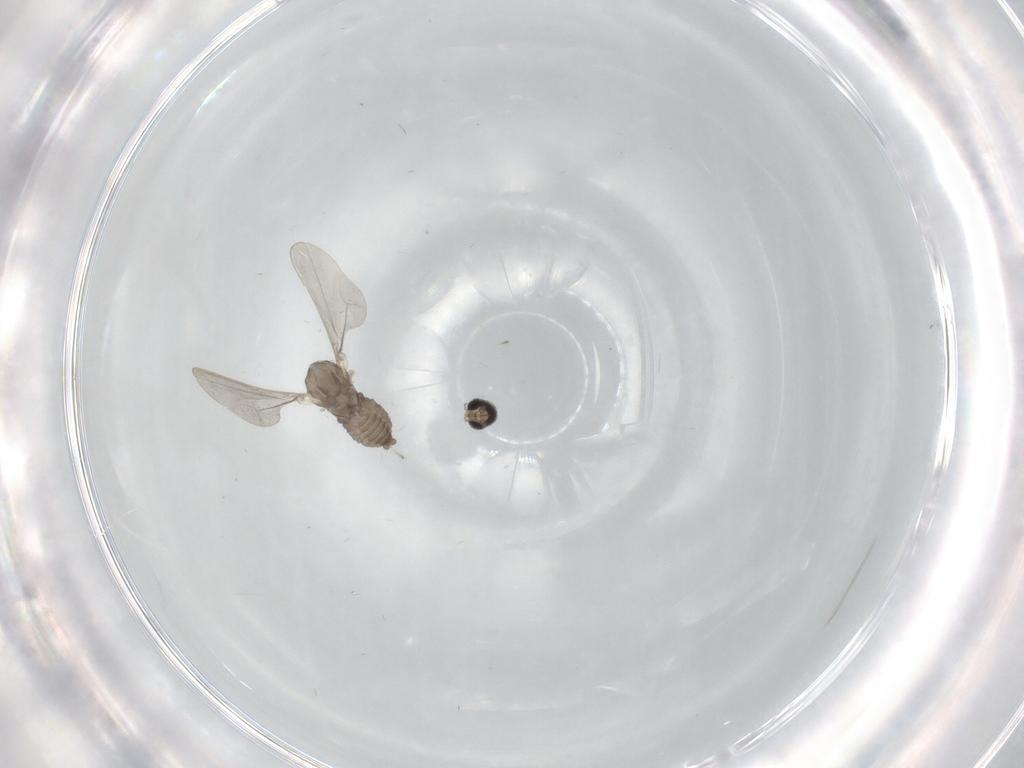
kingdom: Animalia
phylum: Arthropoda
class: Insecta
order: Diptera
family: Cecidomyiidae
